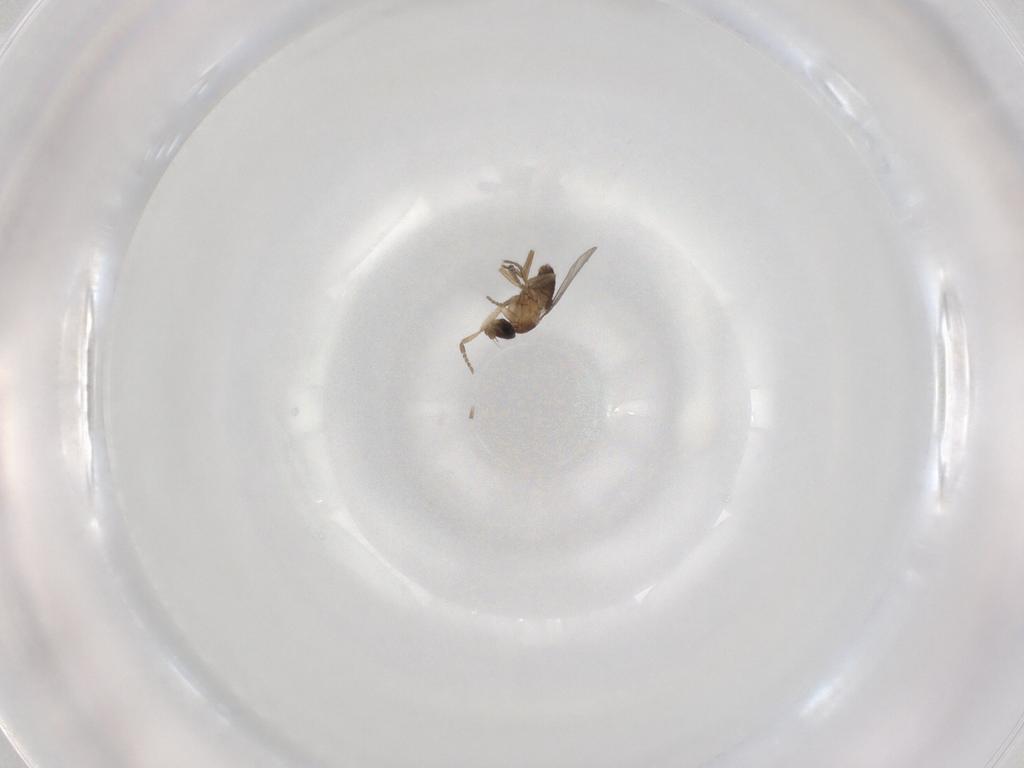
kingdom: Animalia
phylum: Arthropoda
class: Insecta
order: Diptera
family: Phoridae
